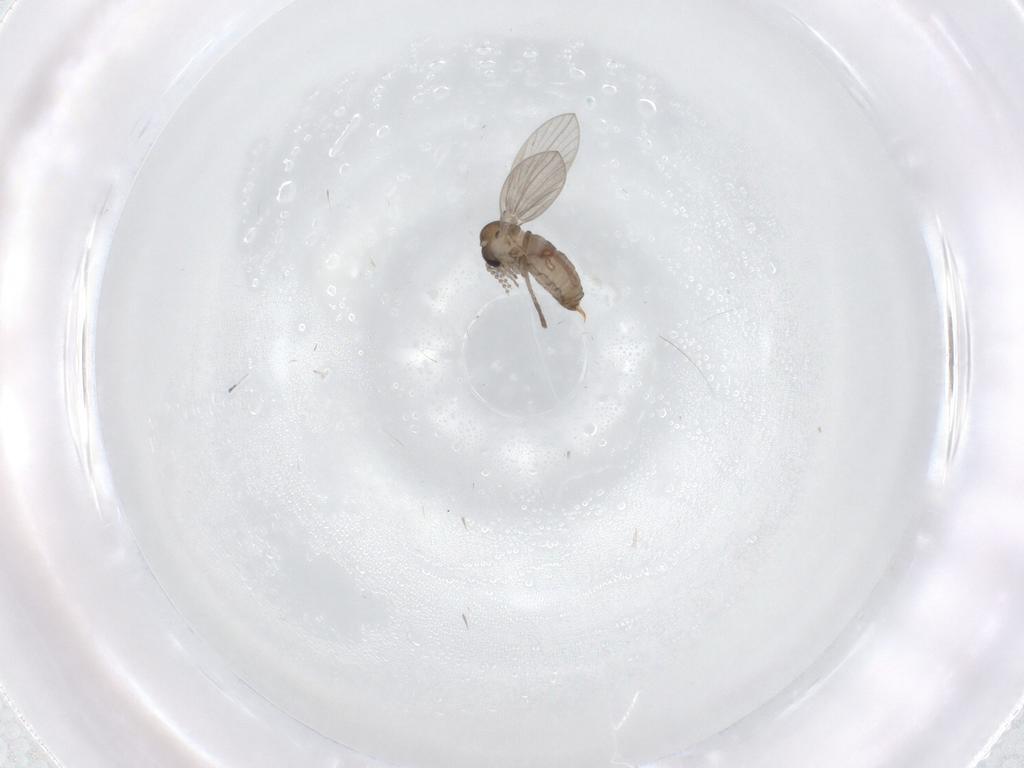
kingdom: Animalia
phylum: Arthropoda
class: Insecta
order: Diptera
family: Psychodidae
